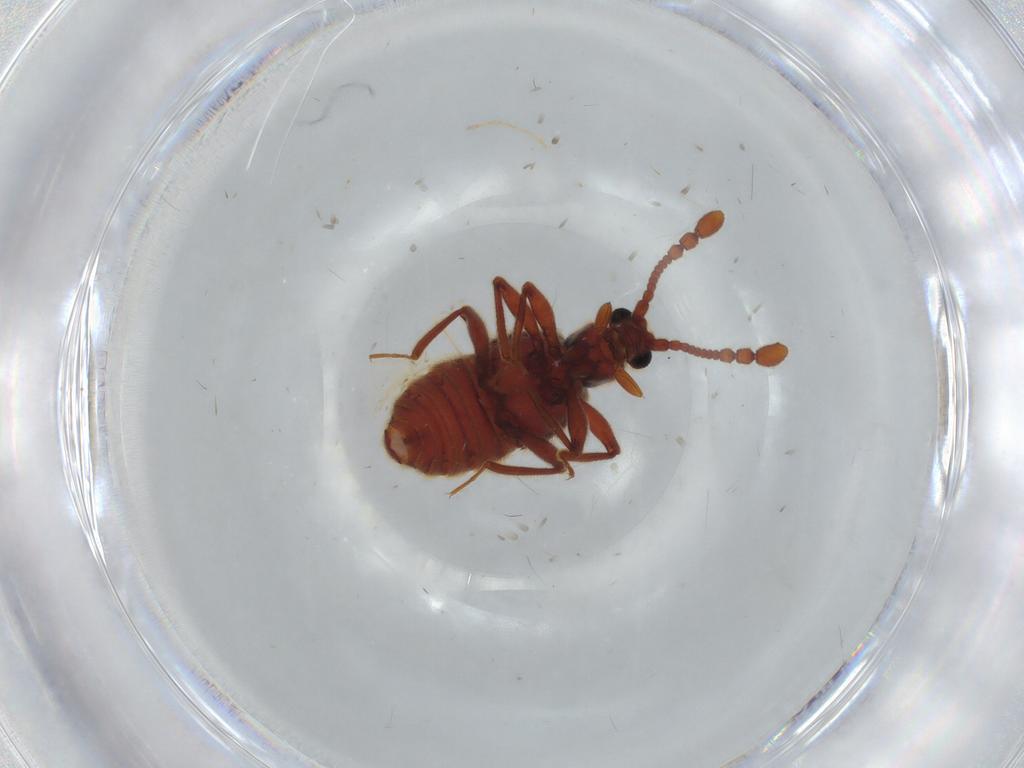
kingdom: Animalia
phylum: Arthropoda
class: Insecta
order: Coleoptera
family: Staphylinidae
